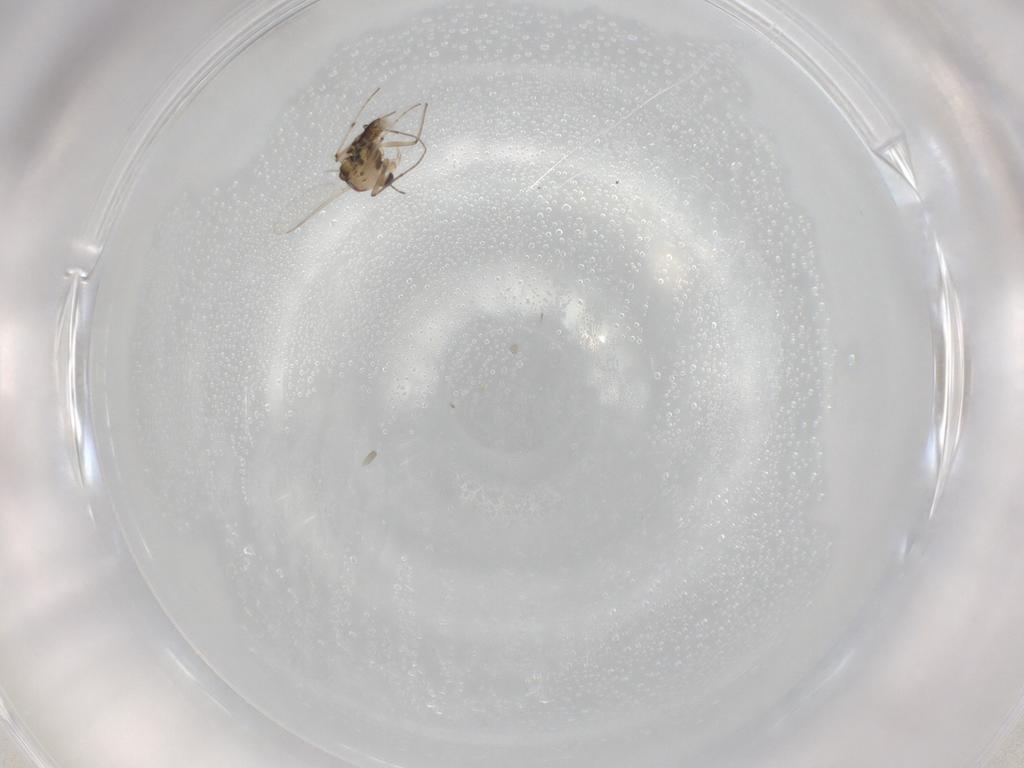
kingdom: Animalia
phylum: Arthropoda
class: Insecta
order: Diptera
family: Chironomidae
